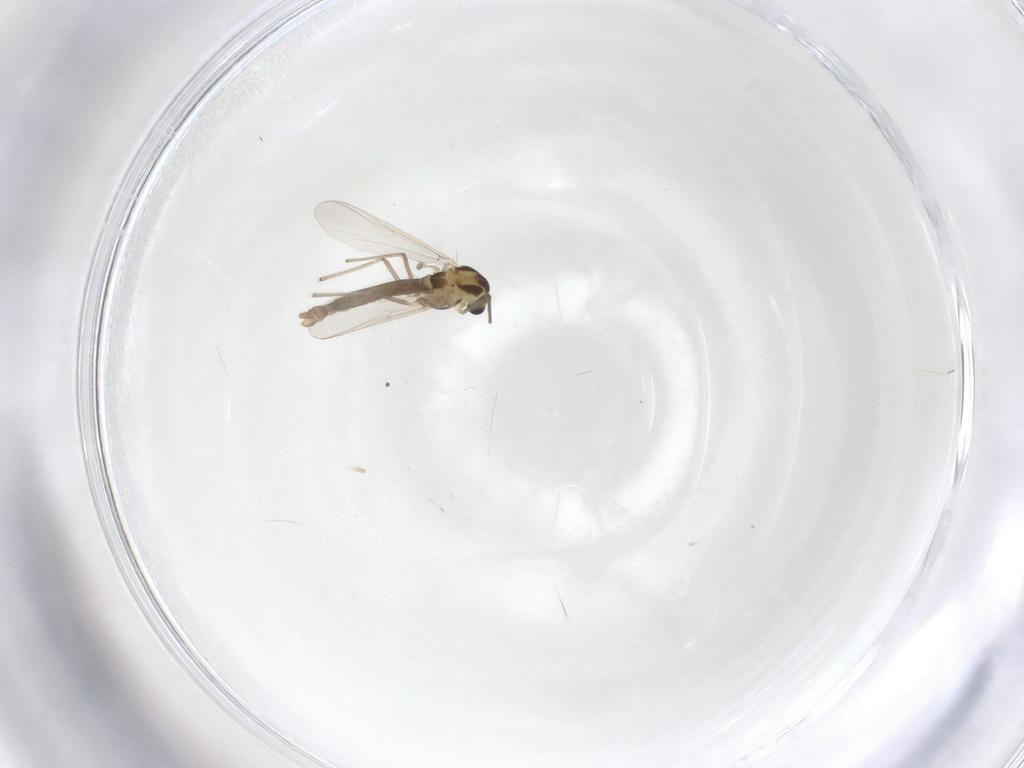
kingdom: Animalia
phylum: Arthropoda
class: Insecta
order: Diptera
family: Chironomidae
